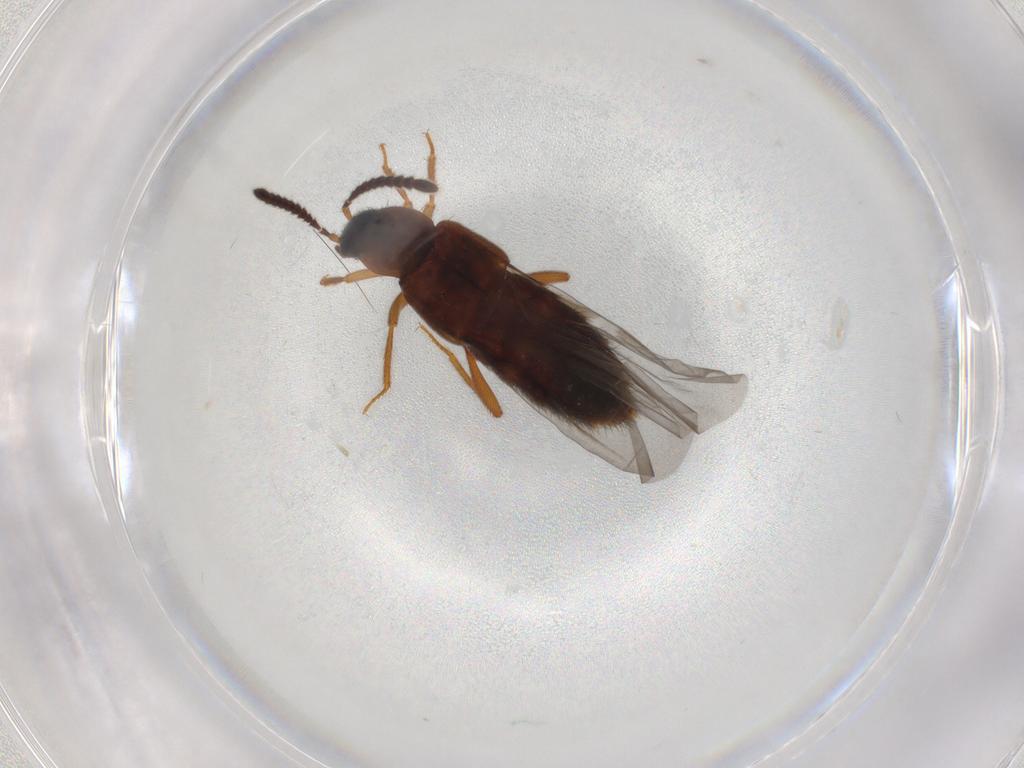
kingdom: Animalia
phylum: Arthropoda
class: Insecta
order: Coleoptera
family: Staphylinidae
